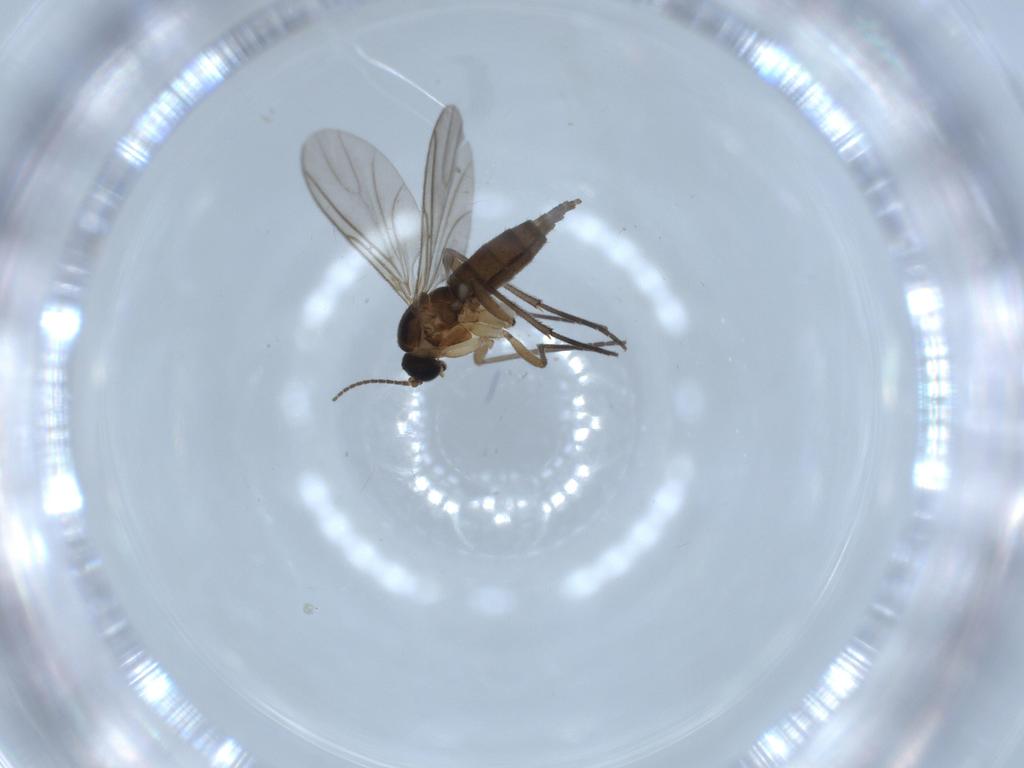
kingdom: Animalia
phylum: Arthropoda
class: Insecta
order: Diptera
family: Sciaridae
